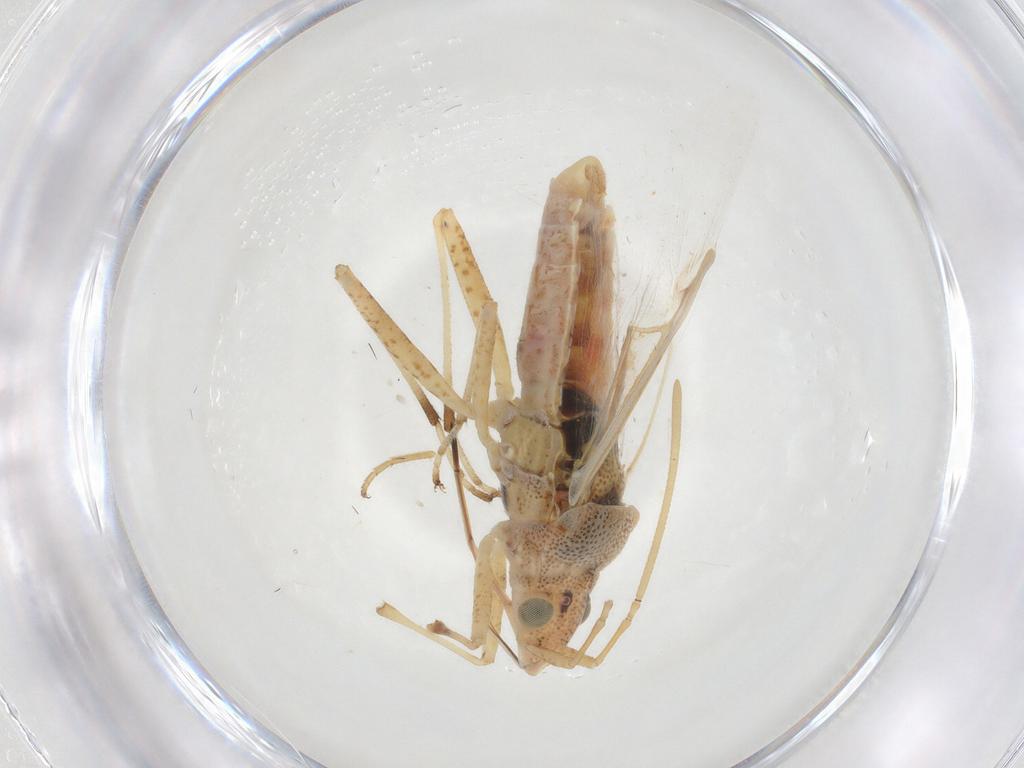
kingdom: Animalia
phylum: Arthropoda
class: Insecta
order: Hemiptera
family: Lygaeidae
